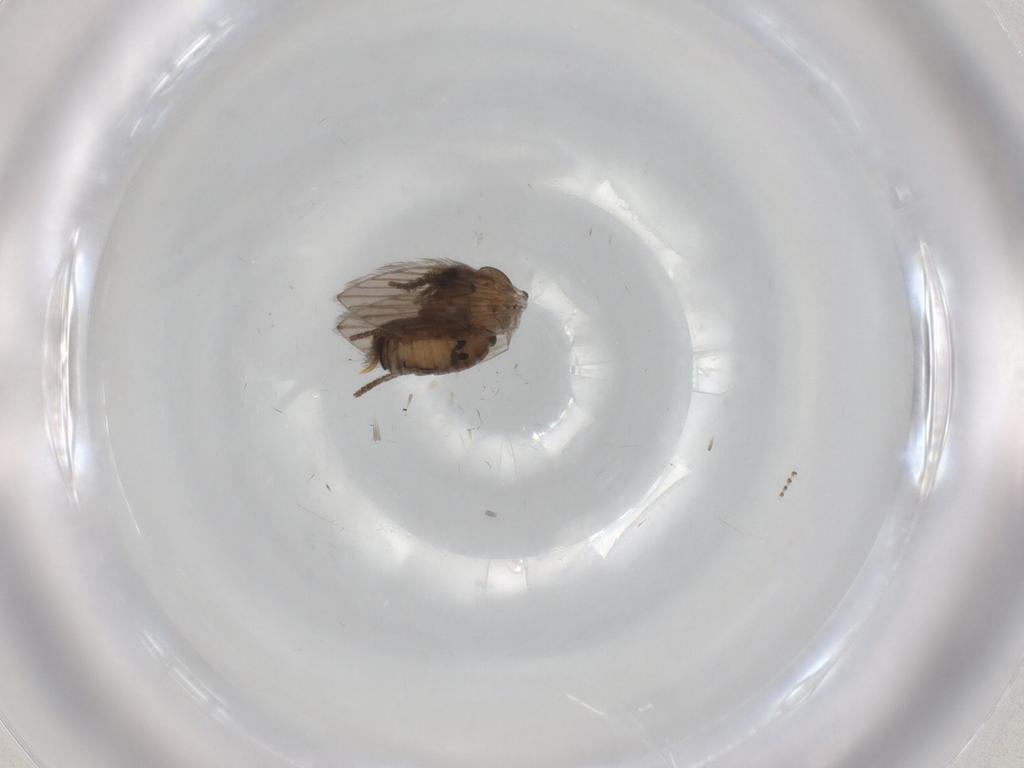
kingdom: Animalia
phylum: Arthropoda
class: Insecta
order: Diptera
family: Psychodidae
